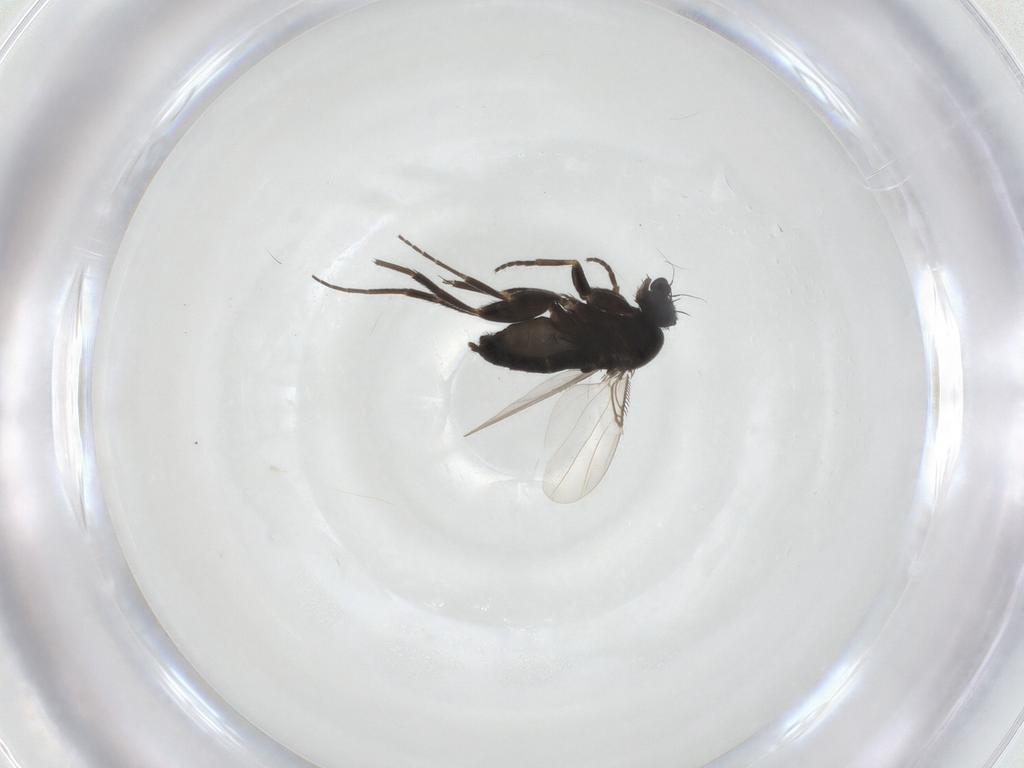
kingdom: Animalia
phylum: Arthropoda
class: Insecta
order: Diptera
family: Phoridae
